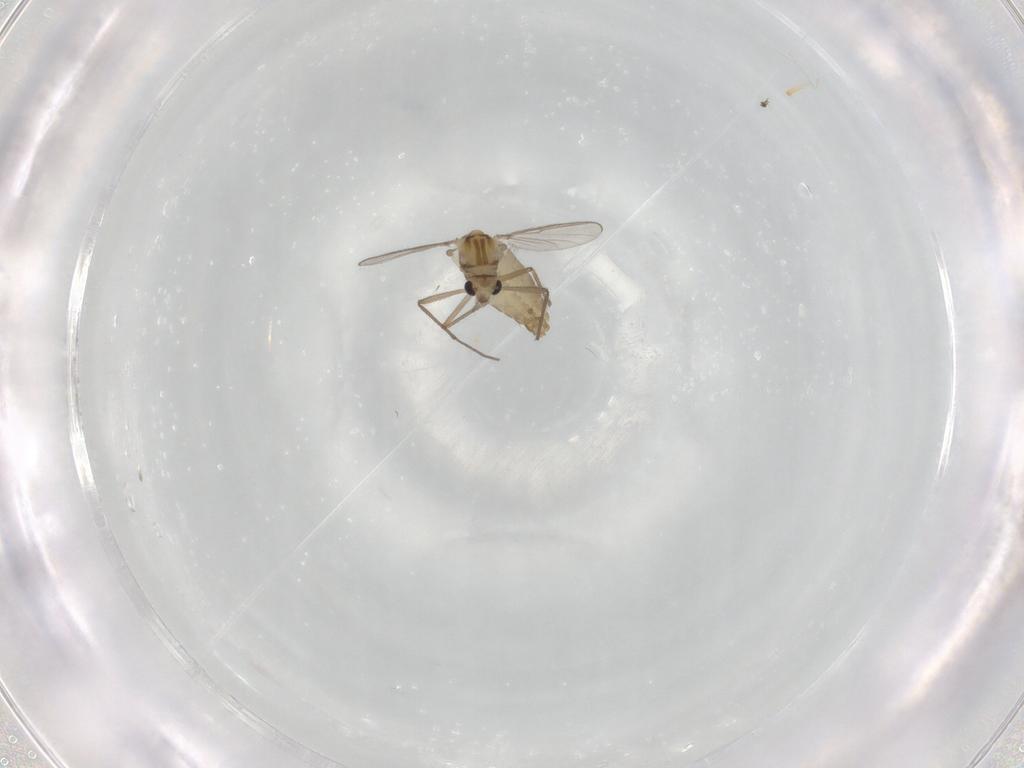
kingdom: Animalia
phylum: Arthropoda
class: Insecta
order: Diptera
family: Chironomidae
